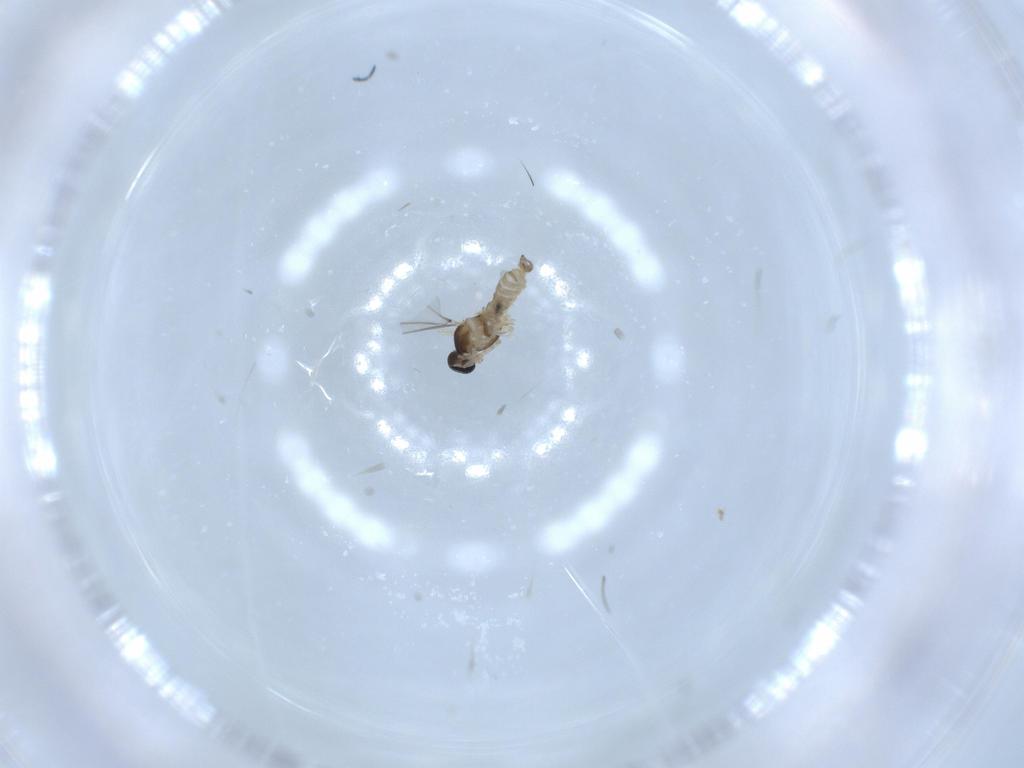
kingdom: Animalia
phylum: Arthropoda
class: Insecta
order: Diptera
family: Cecidomyiidae
